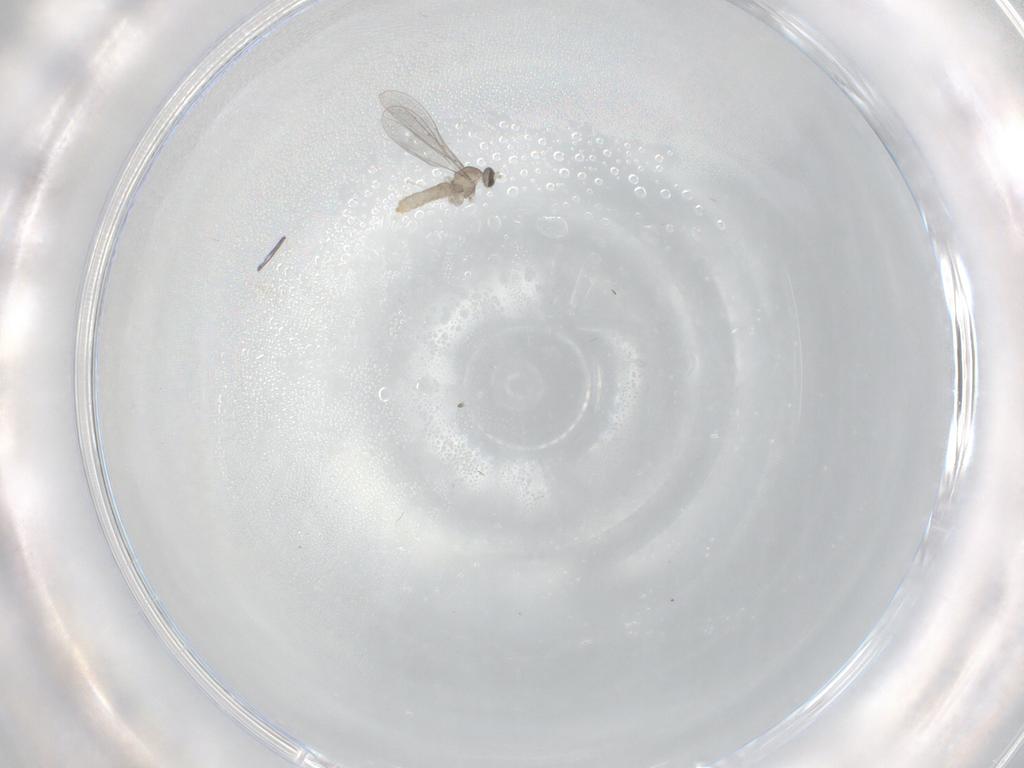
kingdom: Animalia
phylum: Arthropoda
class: Insecta
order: Diptera
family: Cecidomyiidae
